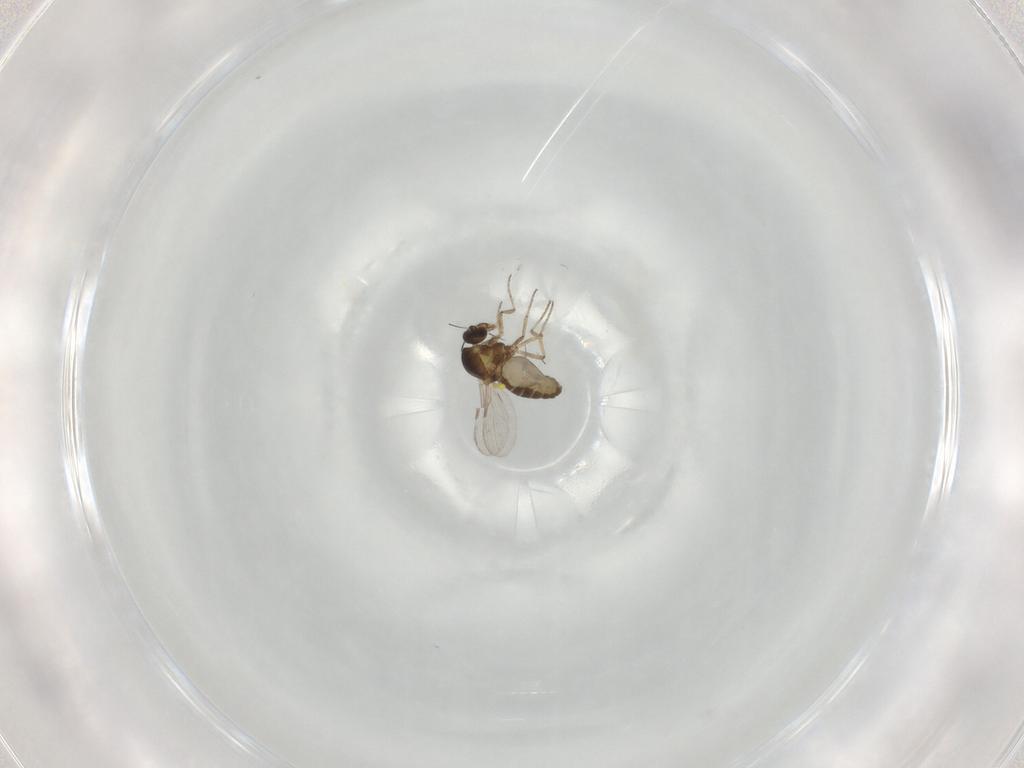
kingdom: Animalia
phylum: Arthropoda
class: Insecta
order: Diptera
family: Ceratopogonidae
